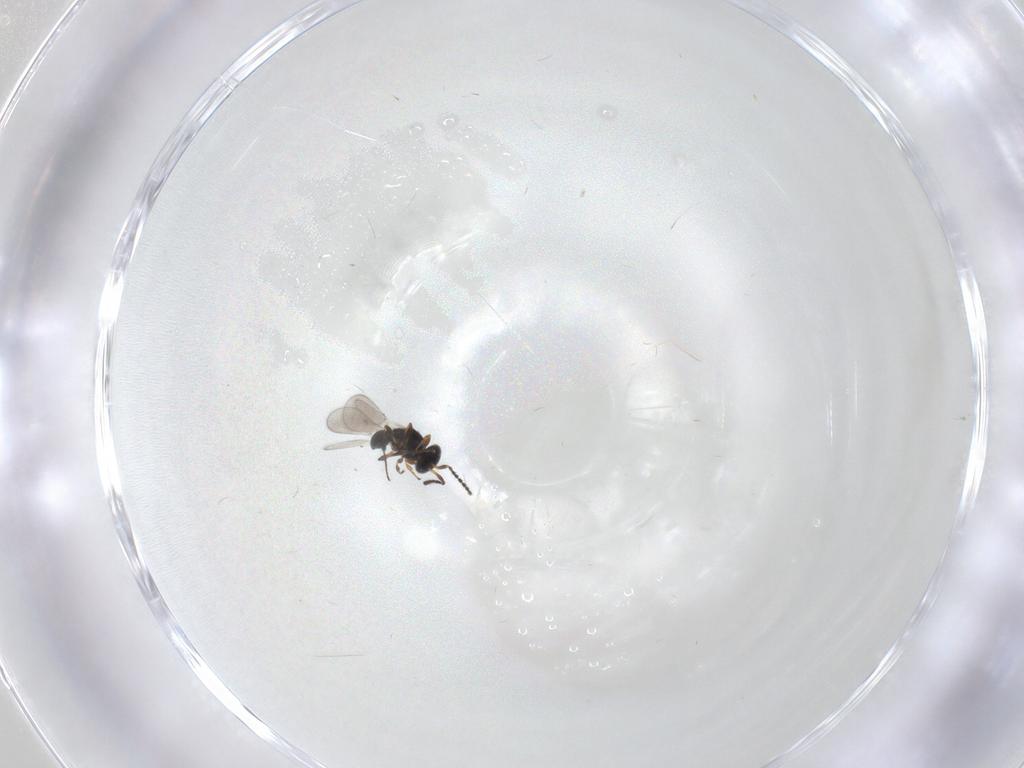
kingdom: Animalia
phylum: Arthropoda
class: Insecta
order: Hymenoptera
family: Platygastridae
